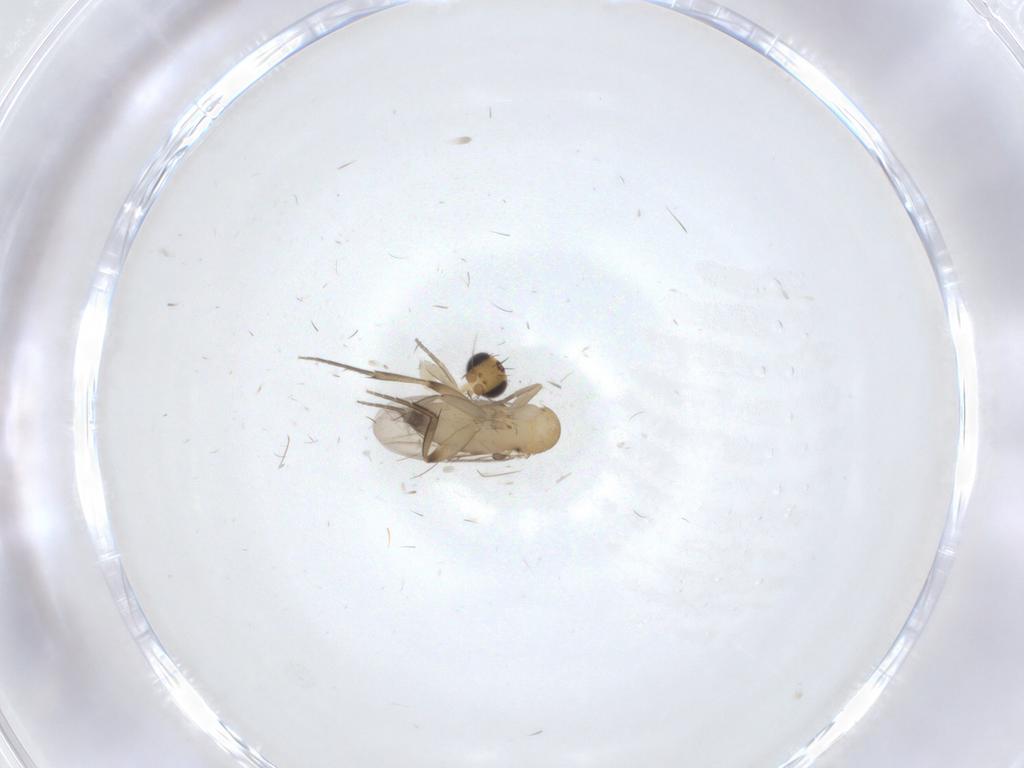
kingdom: Animalia
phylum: Arthropoda
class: Insecta
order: Diptera
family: Phoridae
